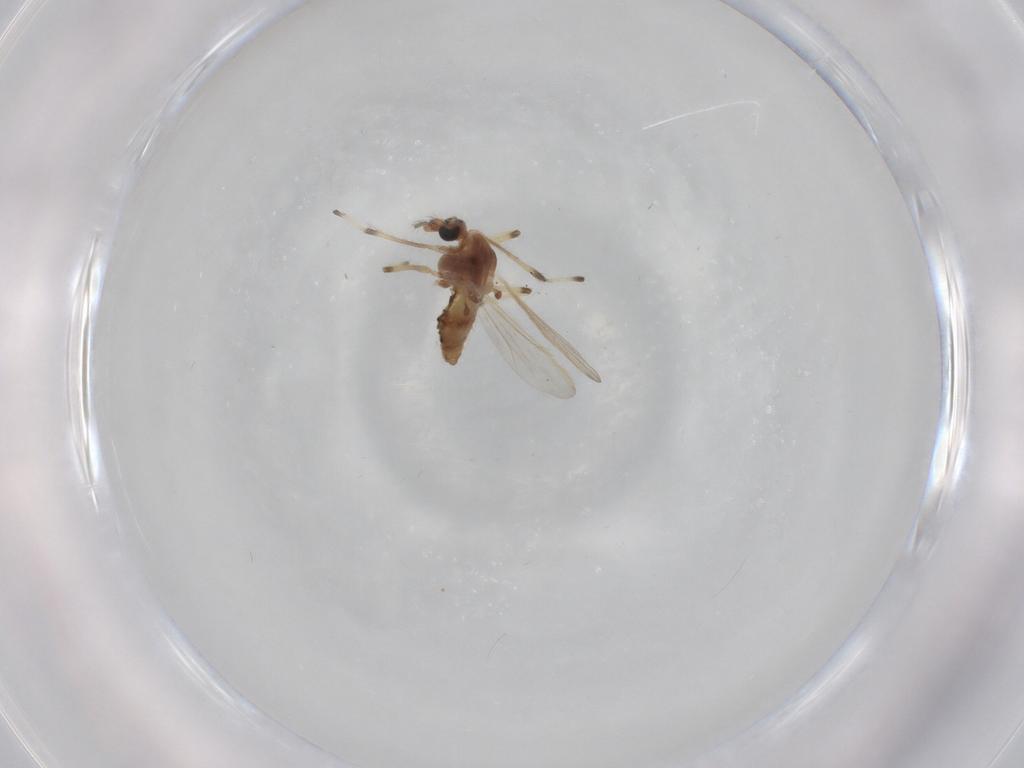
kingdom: Animalia
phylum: Arthropoda
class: Insecta
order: Diptera
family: Chironomidae
